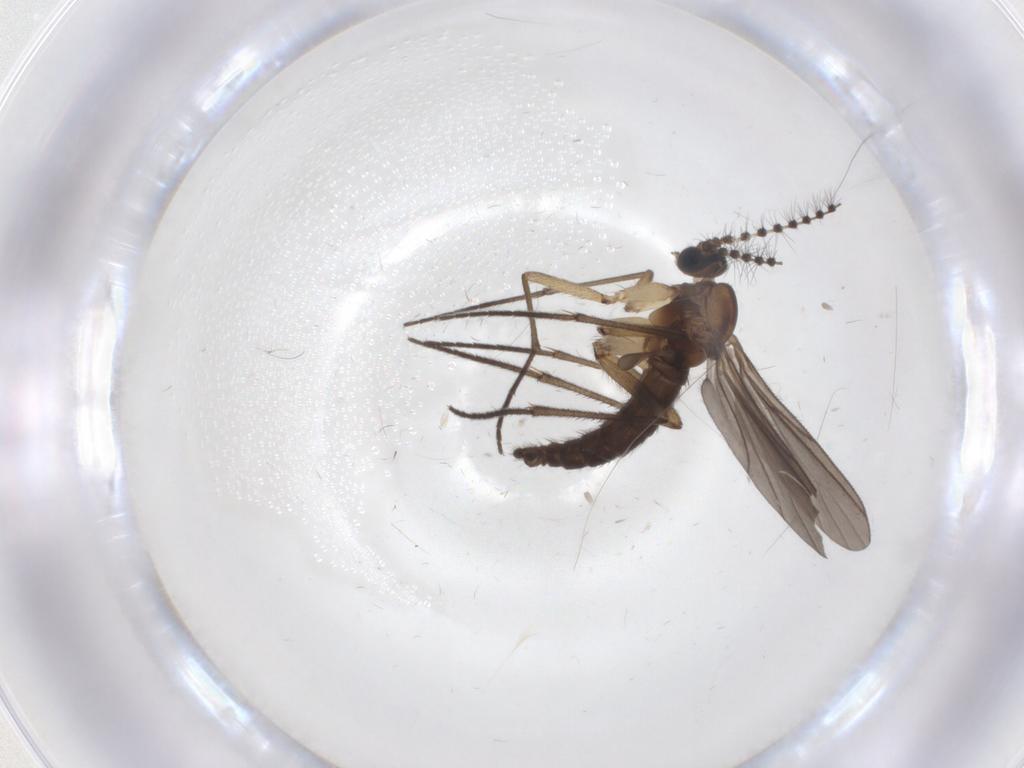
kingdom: Animalia
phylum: Arthropoda
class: Insecta
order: Diptera
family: Sciaridae
